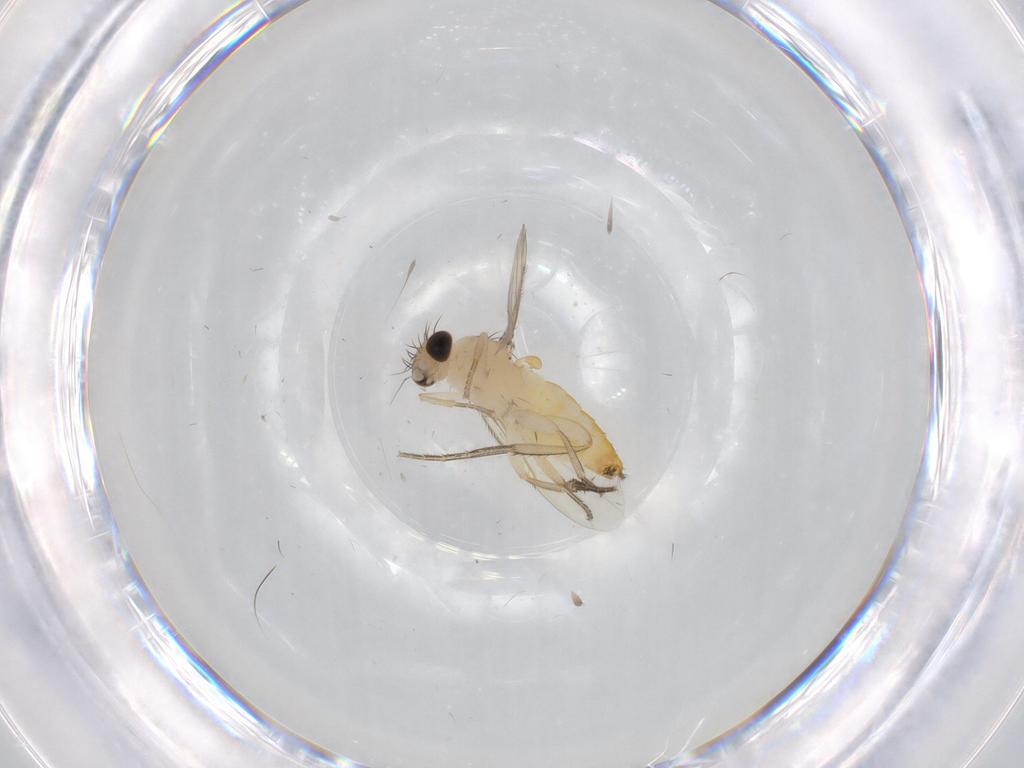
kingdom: Animalia
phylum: Arthropoda
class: Insecta
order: Diptera
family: Phoridae
